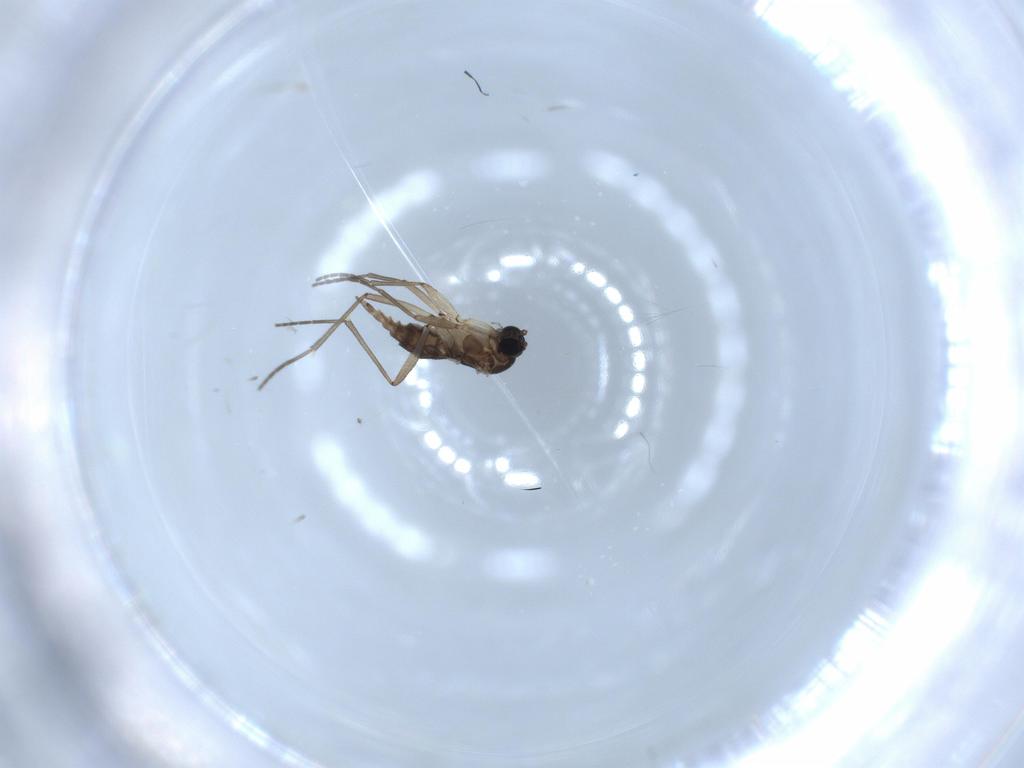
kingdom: Animalia
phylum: Arthropoda
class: Insecta
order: Diptera
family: Sciaridae
